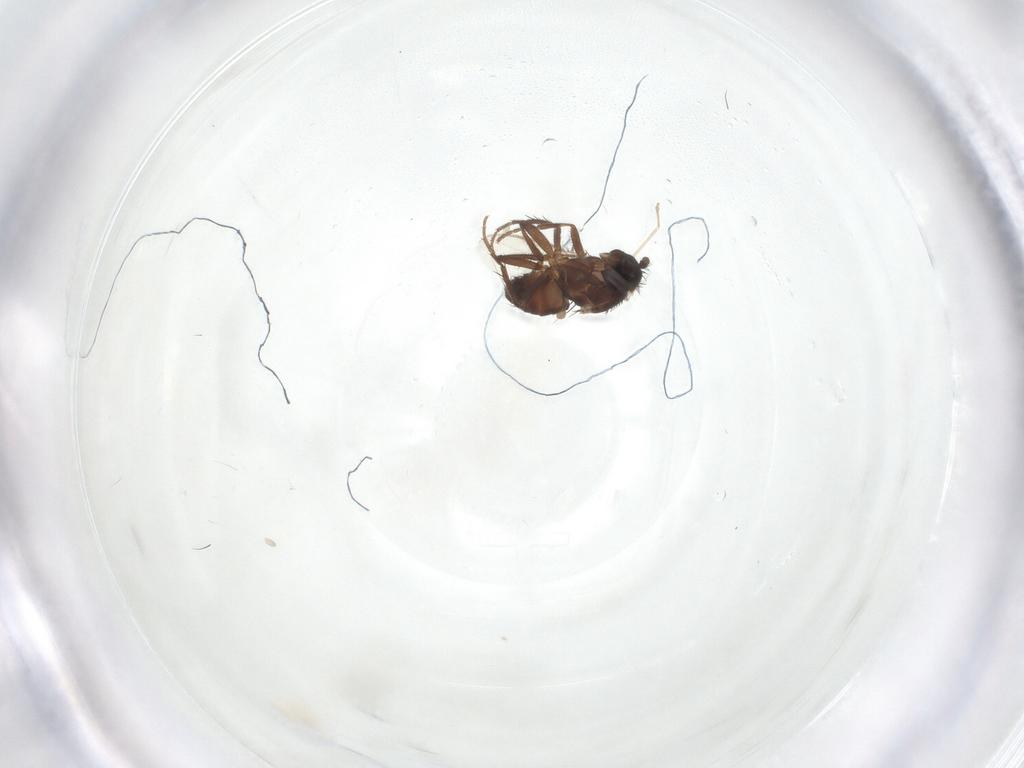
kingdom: Animalia
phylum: Arthropoda
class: Insecta
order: Diptera
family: Sphaeroceridae
